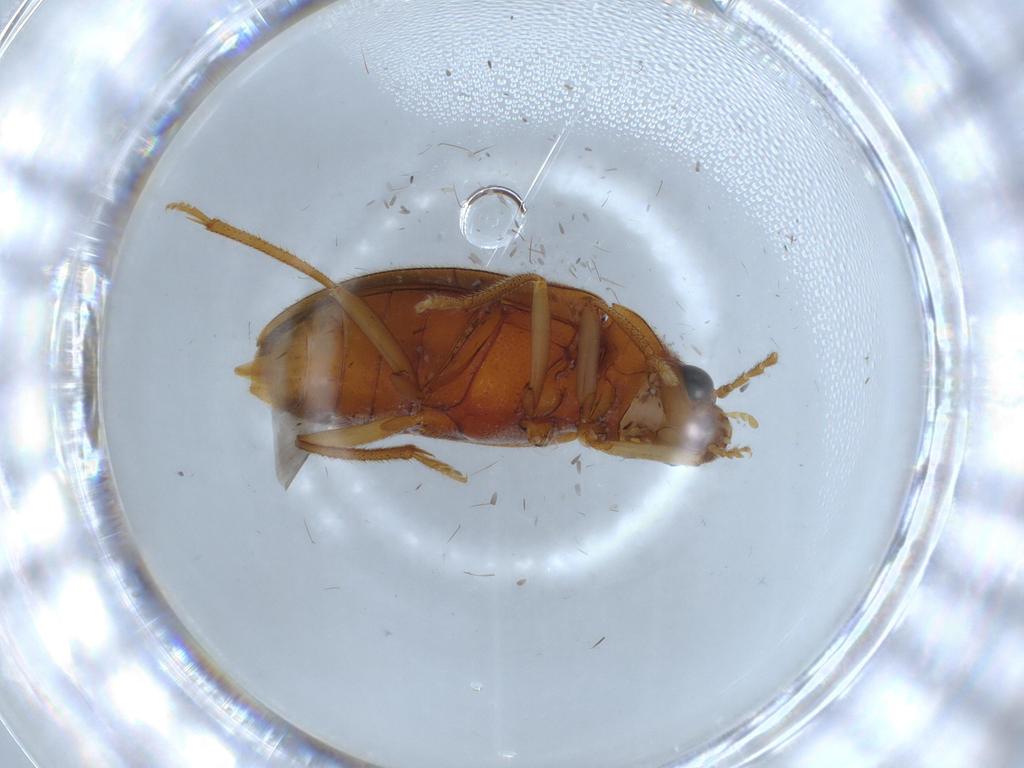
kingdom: Animalia
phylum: Arthropoda
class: Insecta
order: Coleoptera
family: Ptilodactylidae
